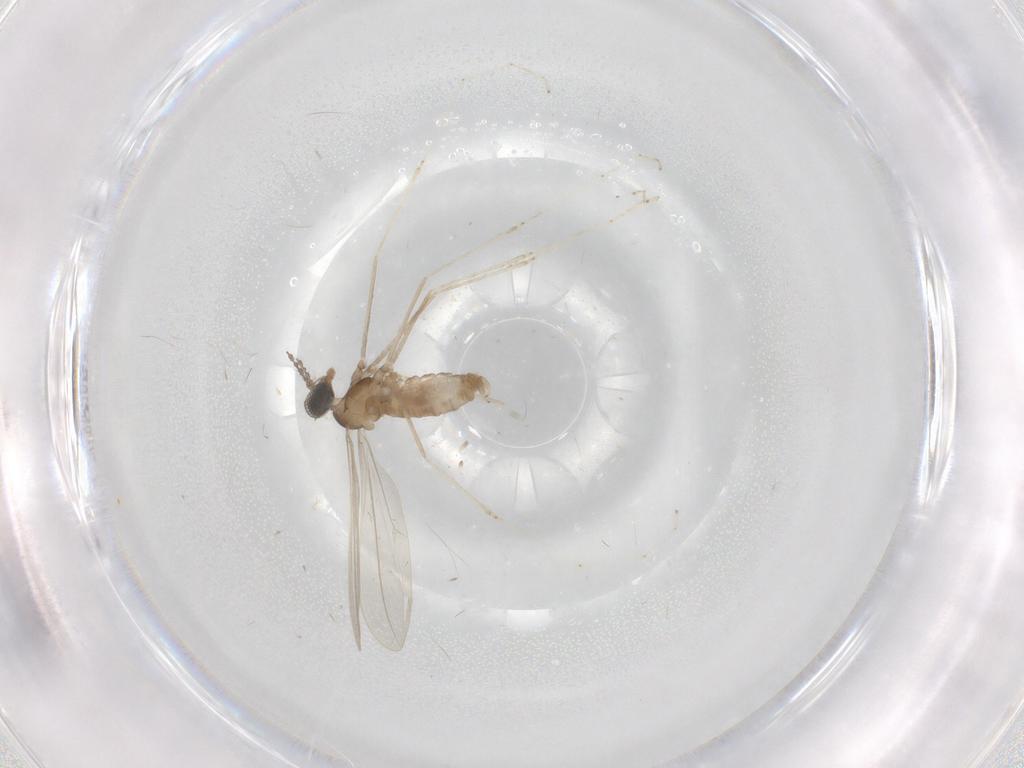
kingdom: Animalia
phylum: Arthropoda
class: Insecta
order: Diptera
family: Cecidomyiidae
